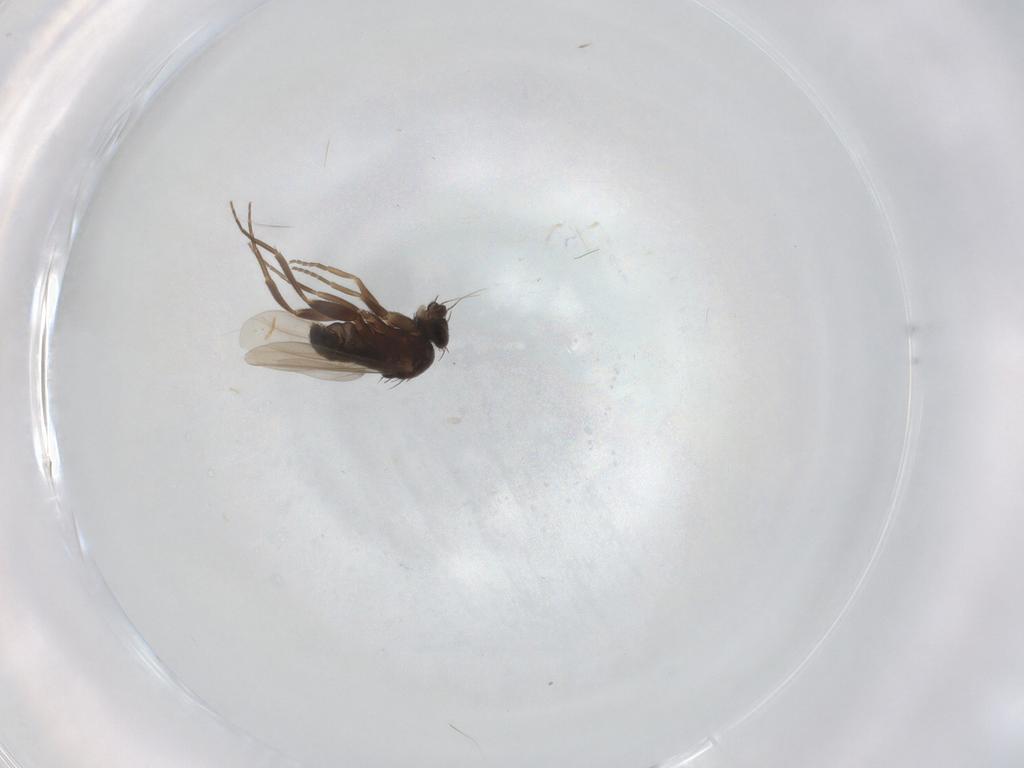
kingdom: Animalia
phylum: Arthropoda
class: Insecta
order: Diptera
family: Phoridae
